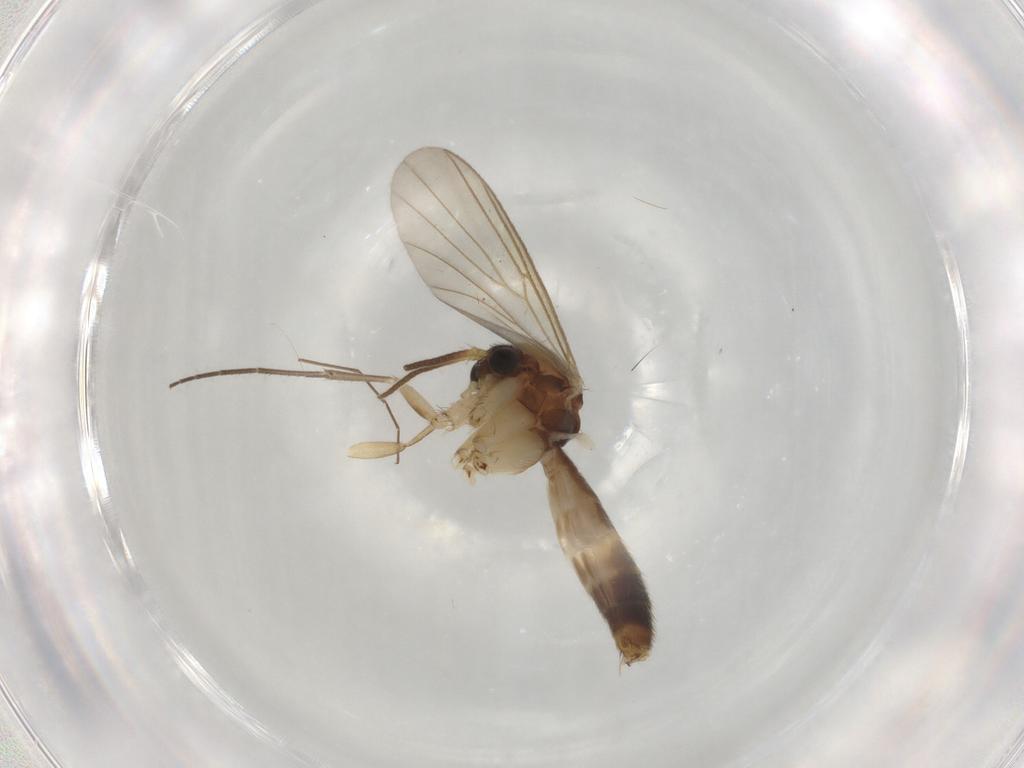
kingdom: Animalia
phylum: Arthropoda
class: Insecta
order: Diptera
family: Mycetophilidae
